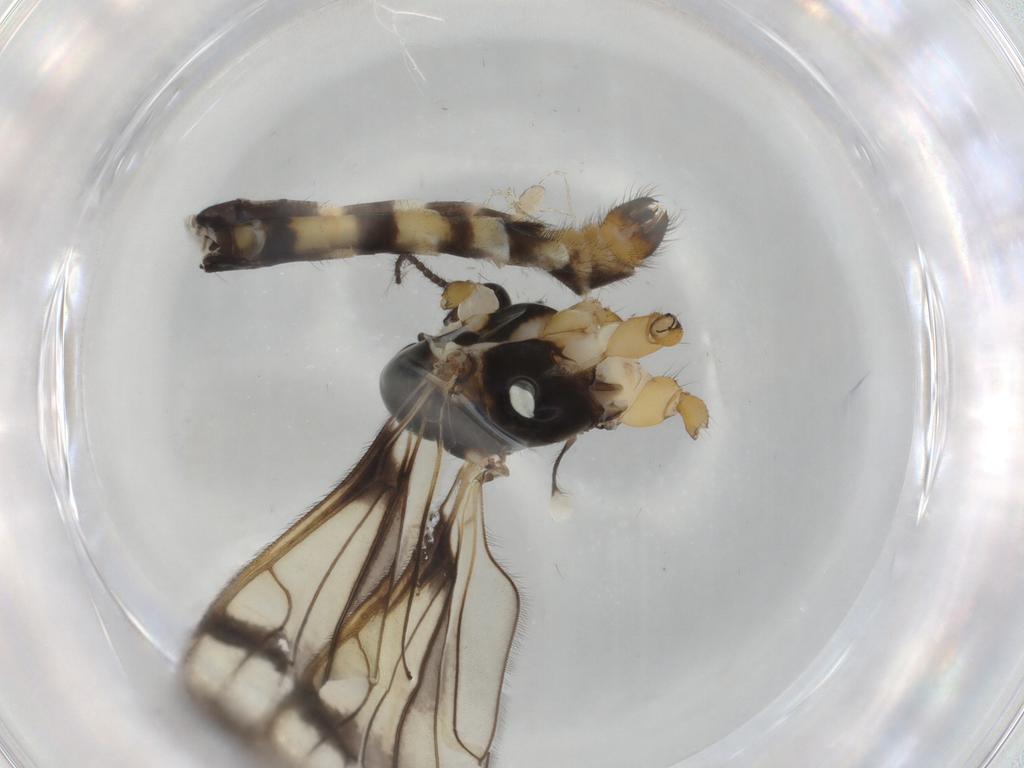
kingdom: Animalia
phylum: Arthropoda
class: Insecta
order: Diptera
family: Limoniidae
